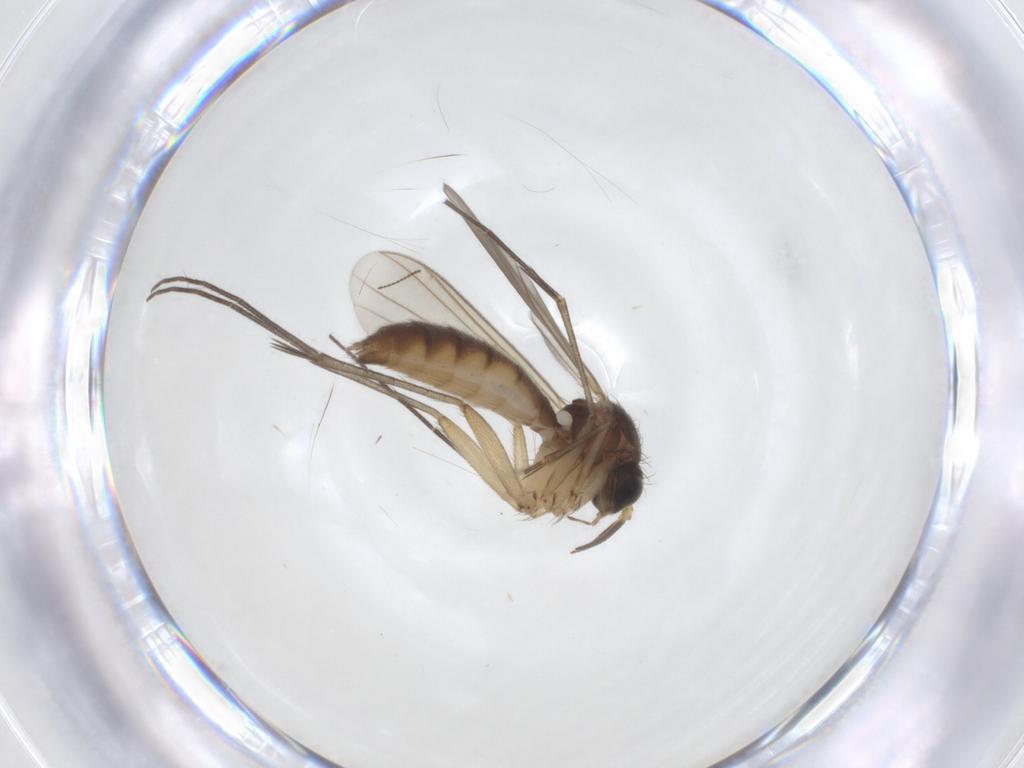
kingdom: Animalia
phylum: Arthropoda
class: Insecta
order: Diptera
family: Mycetophilidae
